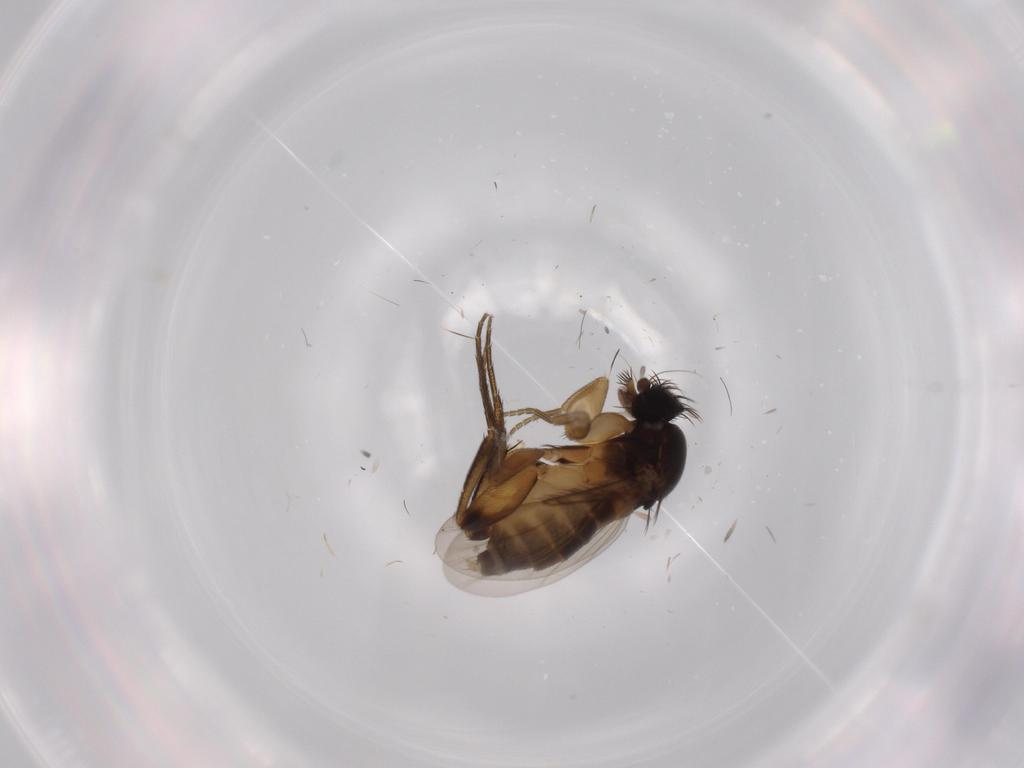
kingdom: Animalia
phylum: Arthropoda
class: Insecta
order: Diptera
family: Phoridae
